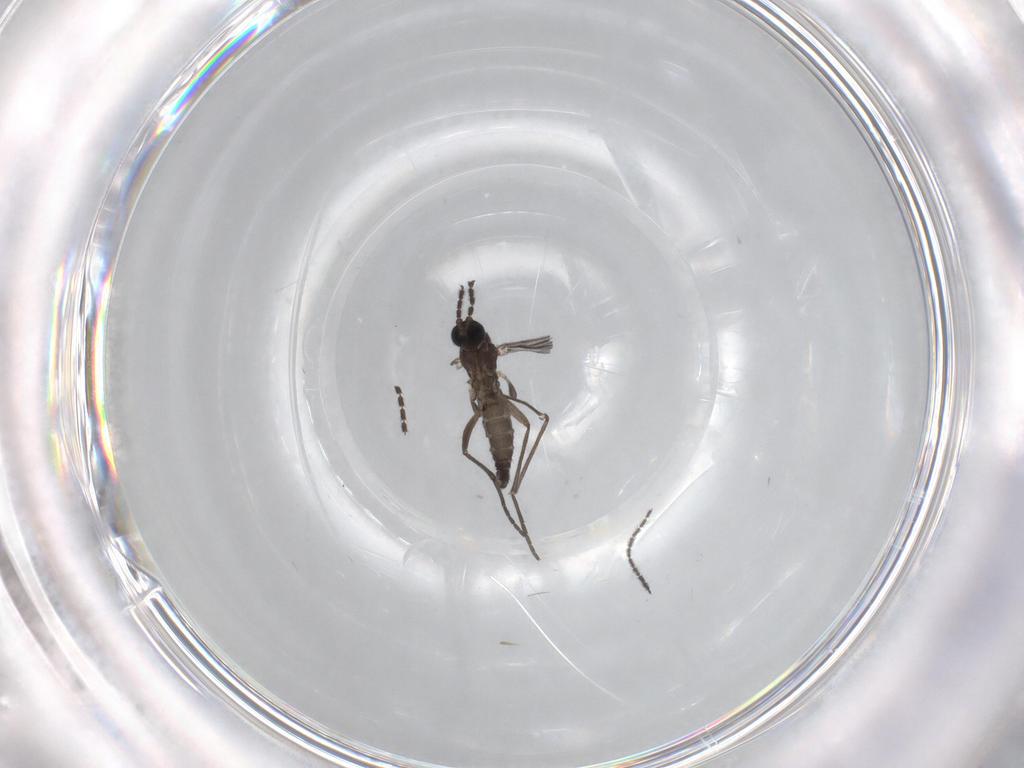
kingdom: Animalia
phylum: Arthropoda
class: Insecta
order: Diptera
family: Sciaridae
